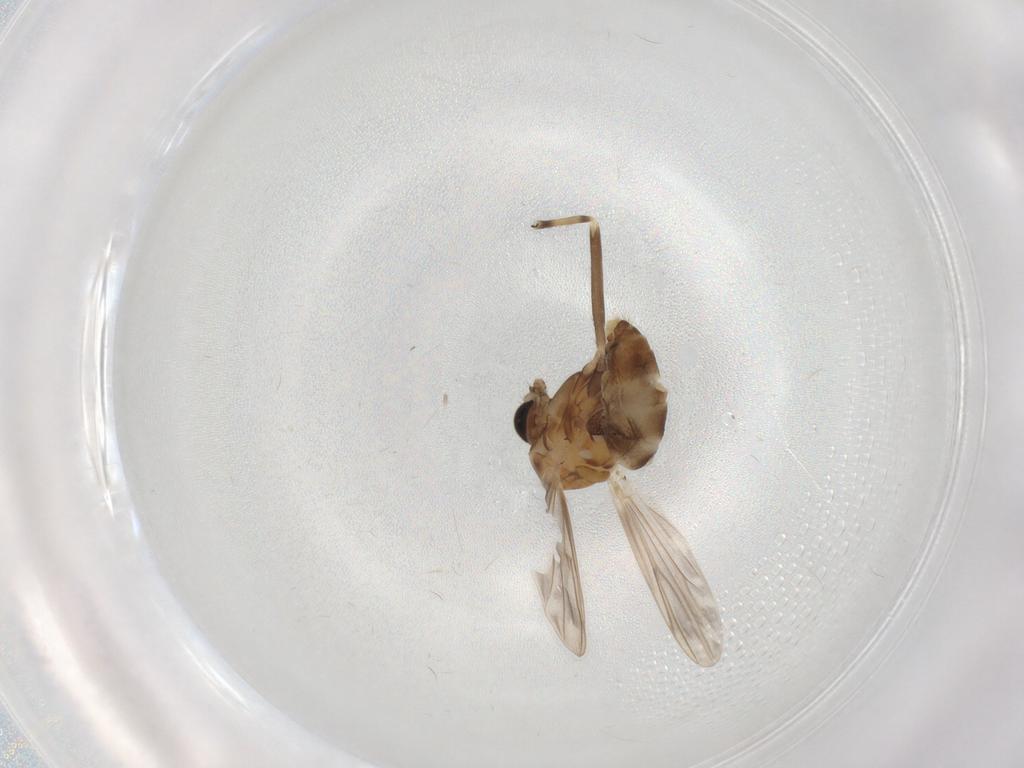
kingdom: Animalia
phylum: Arthropoda
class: Insecta
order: Diptera
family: Chironomidae
